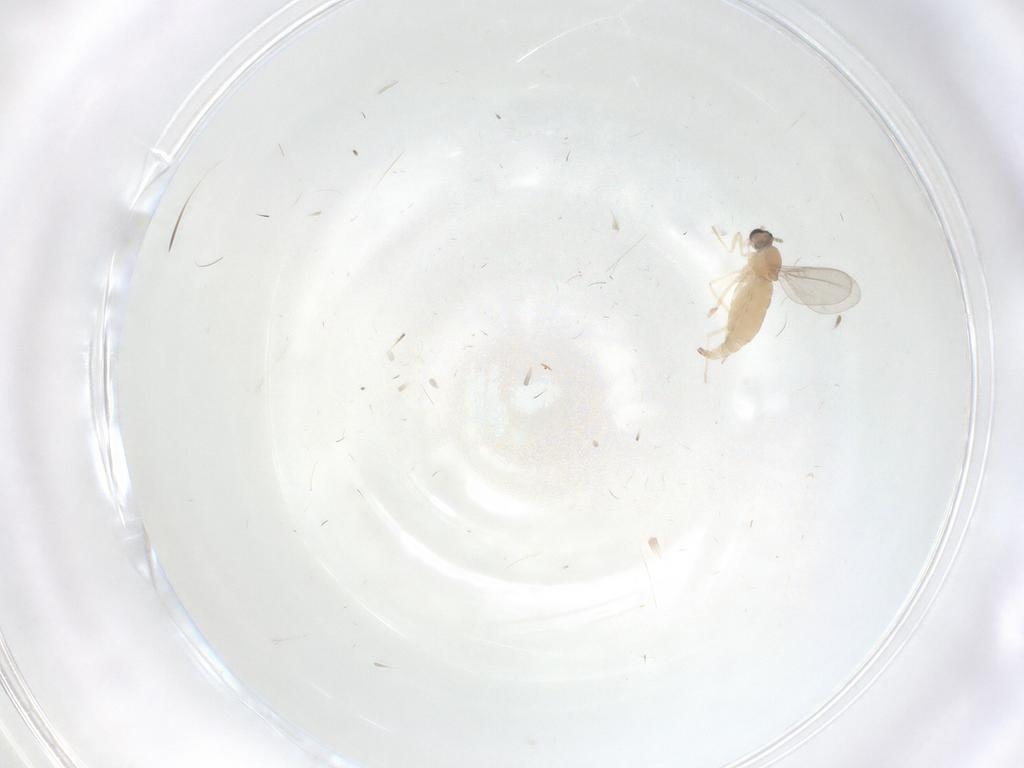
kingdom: Animalia
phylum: Arthropoda
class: Insecta
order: Diptera
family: Cecidomyiidae
